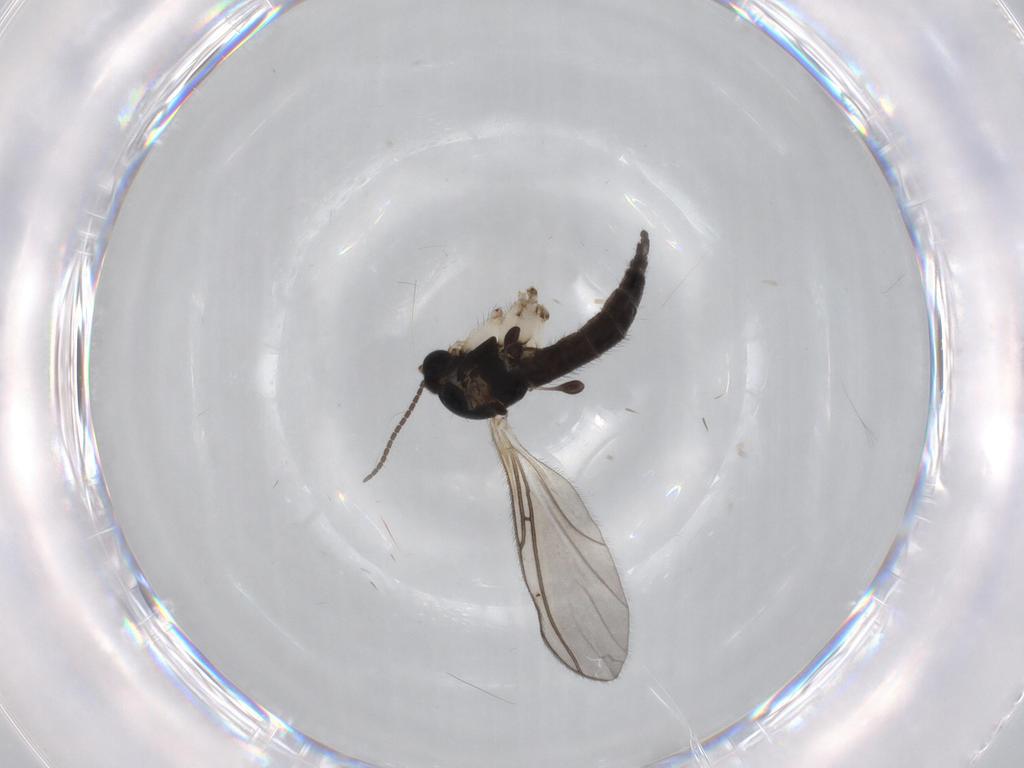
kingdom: Animalia
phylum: Arthropoda
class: Insecta
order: Diptera
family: Sciaridae
